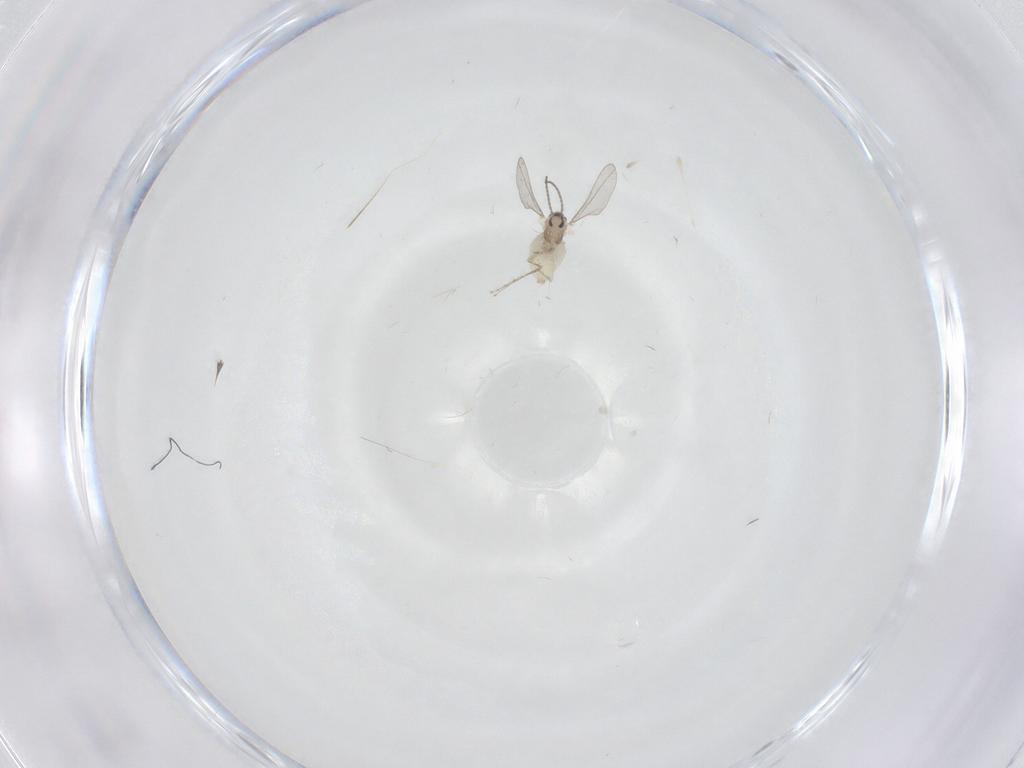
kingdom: Animalia
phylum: Arthropoda
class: Insecta
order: Diptera
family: Cecidomyiidae
